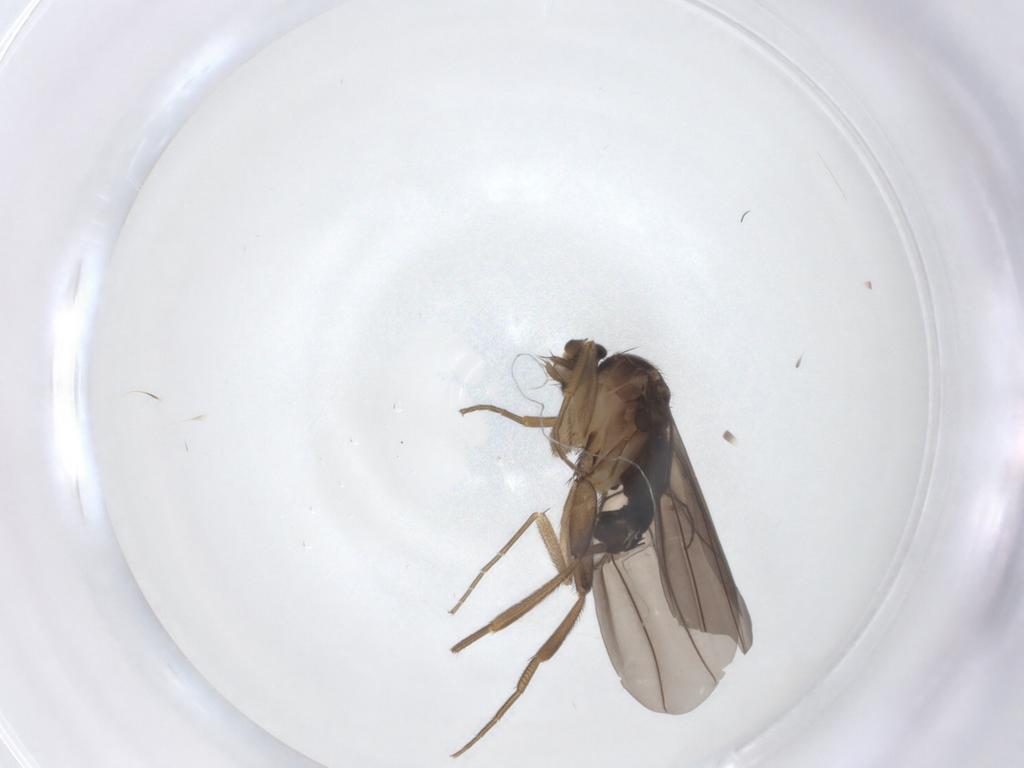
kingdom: Animalia
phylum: Arthropoda
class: Insecta
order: Diptera
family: Phoridae
